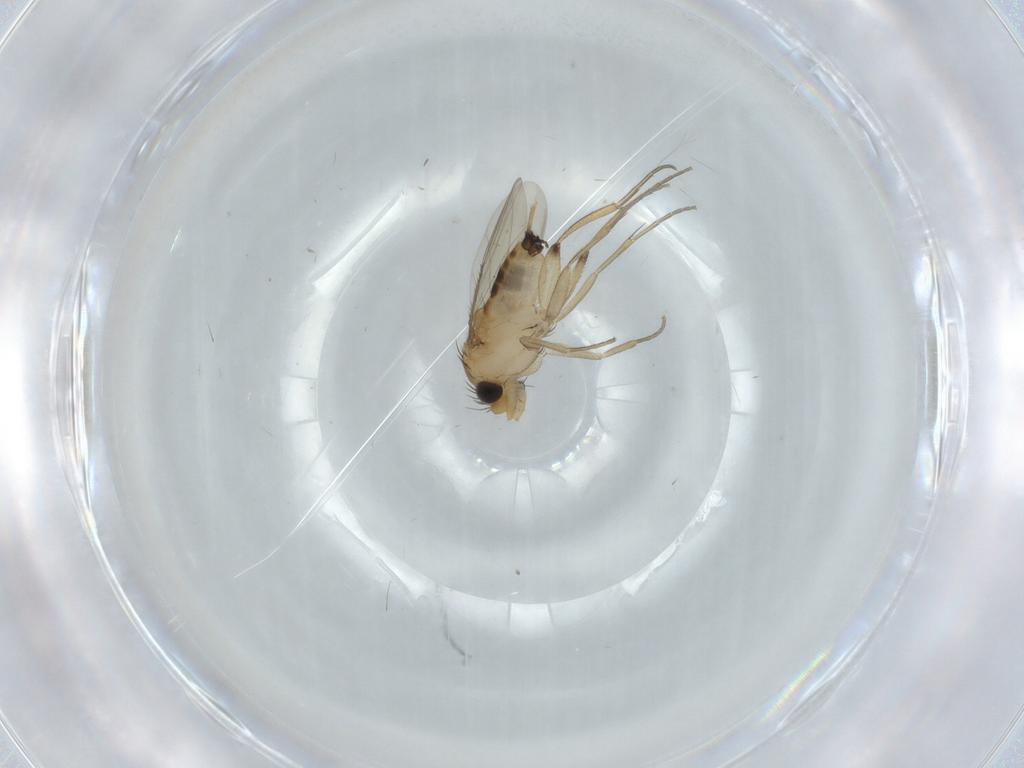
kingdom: Animalia
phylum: Arthropoda
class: Insecta
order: Diptera
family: Phoridae
